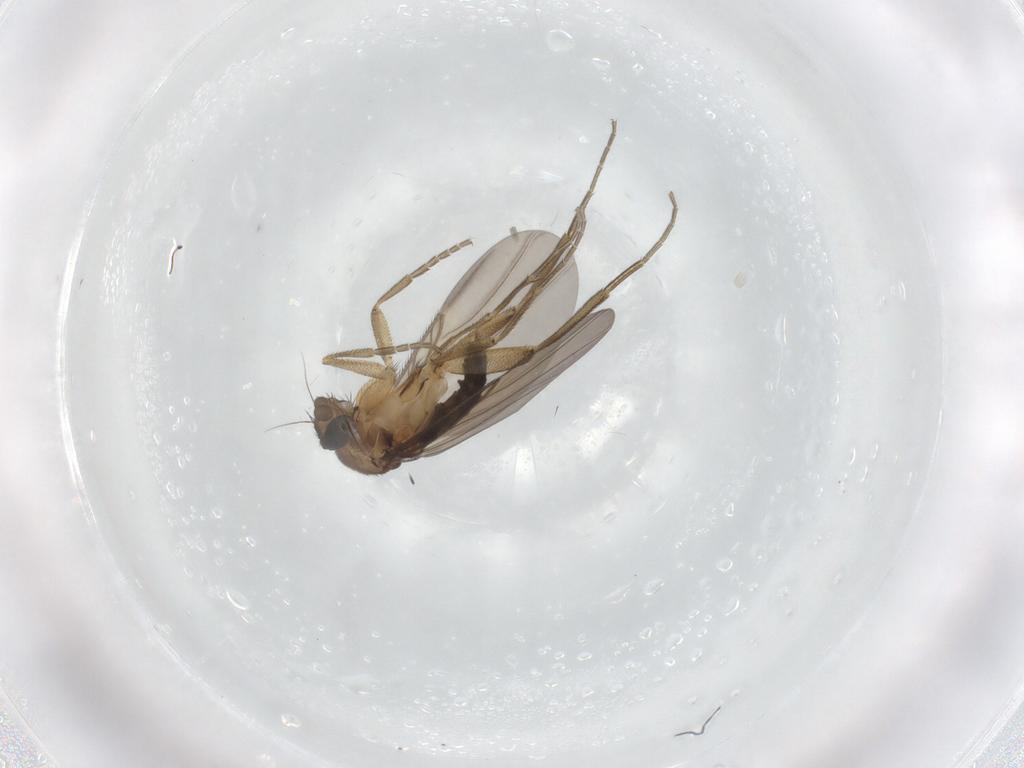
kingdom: Animalia
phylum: Arthropoda
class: Insecta
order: Diptera
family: Phoridae
